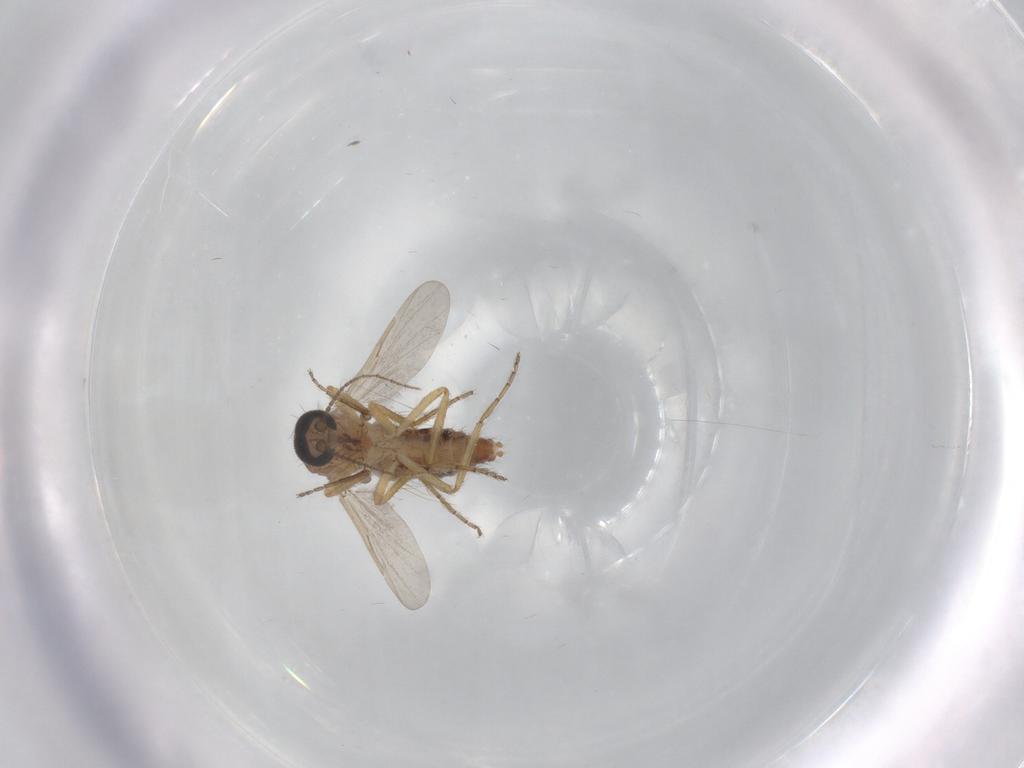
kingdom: Animalia
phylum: Arthropoda
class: Insecta
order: Diptera
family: Ceratopogonidae
